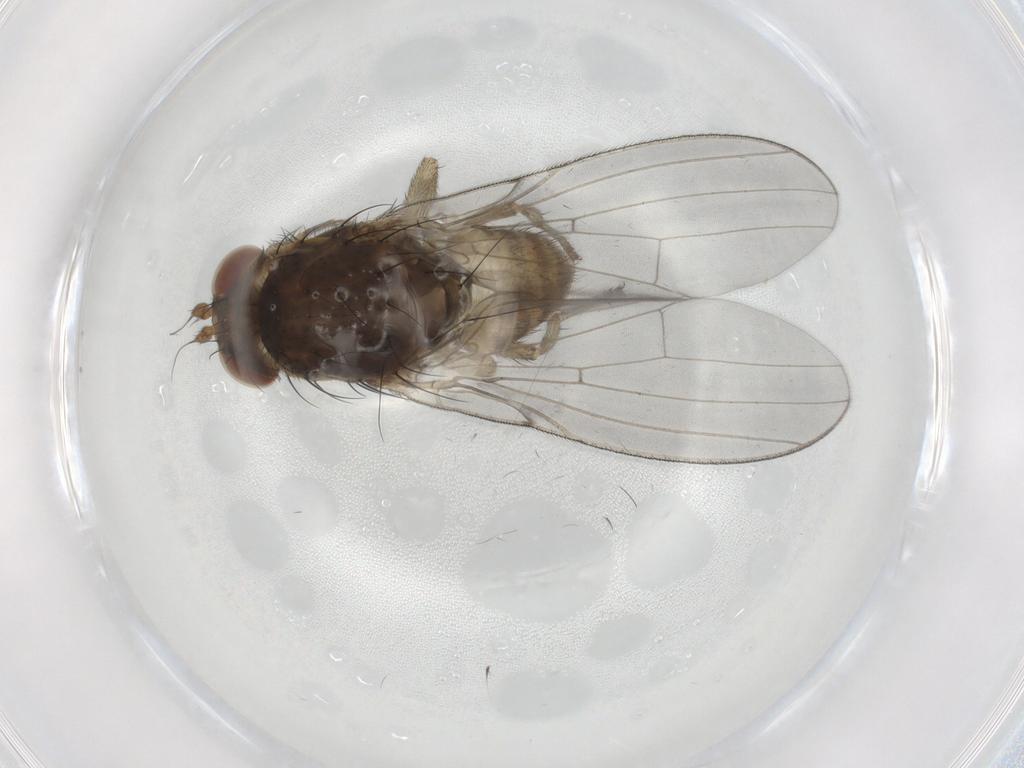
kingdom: Animalia
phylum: Arthropoda
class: Insecta
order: Diptera
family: Lauxaniidae
